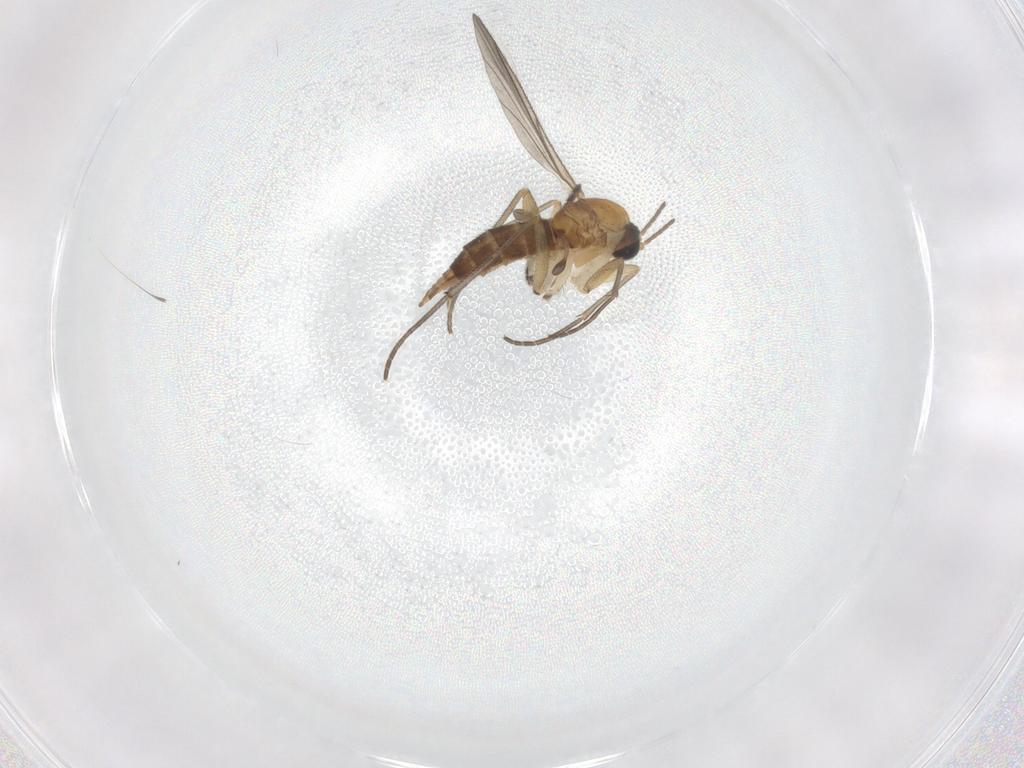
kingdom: Animalia
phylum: Arthropoda
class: Insecta
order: Diptera
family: Sciaridae
